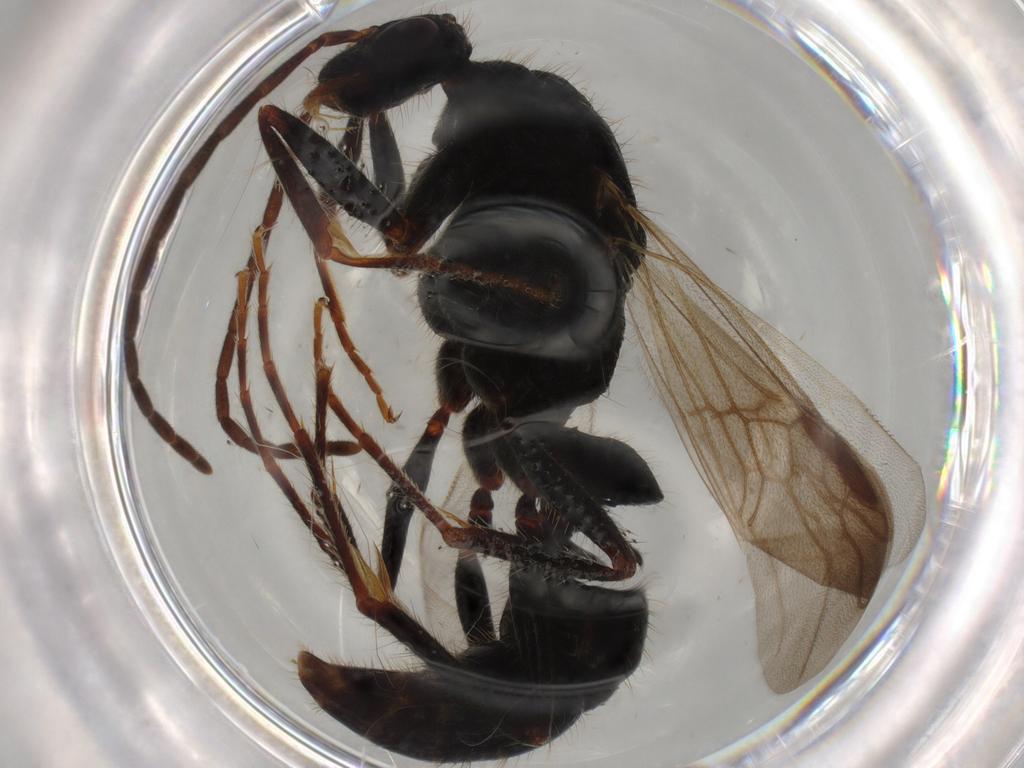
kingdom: Animalia
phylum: Arthropoda
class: Insecta
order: Hymenoptera
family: Formicidae
